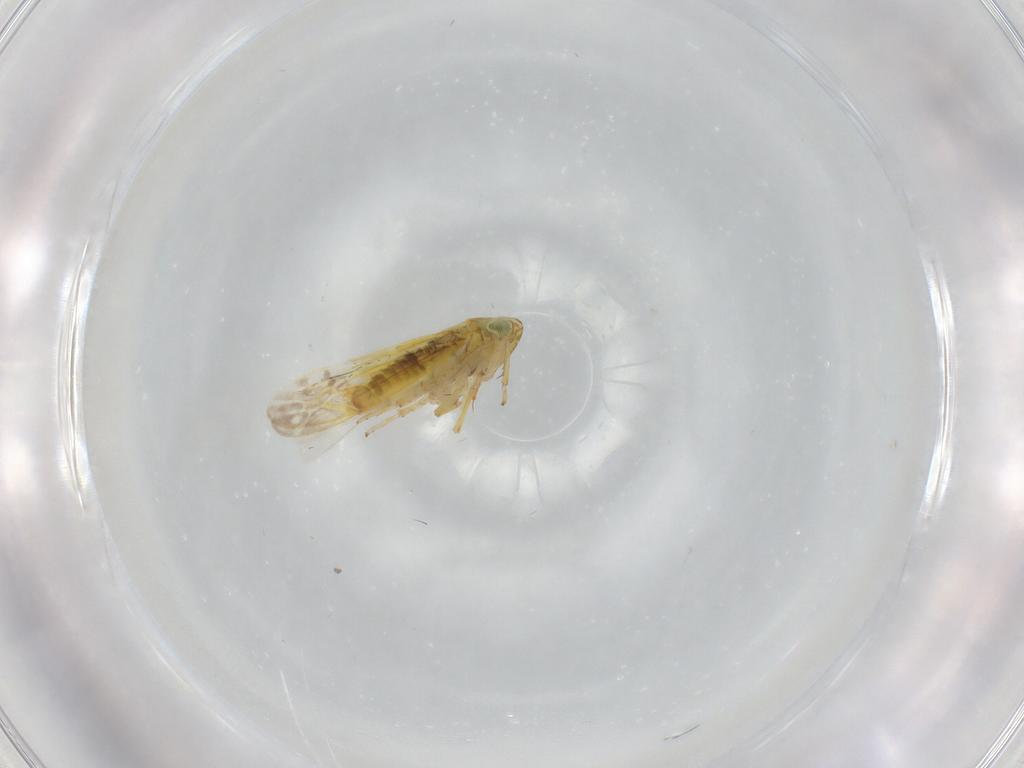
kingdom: Animalia
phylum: Arthropoda
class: Insecta
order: Hemiptera
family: Cicadellidae
